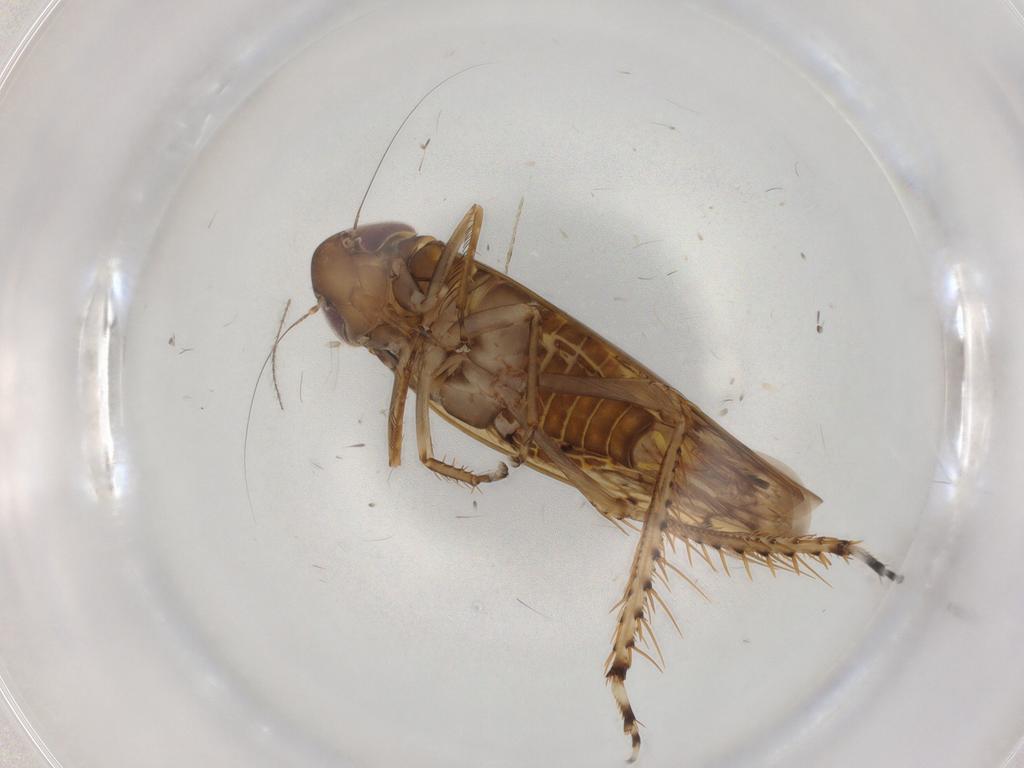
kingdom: Animalia
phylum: Arthropoda
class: Insecta
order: Hemiptera
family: Cicadellidae
